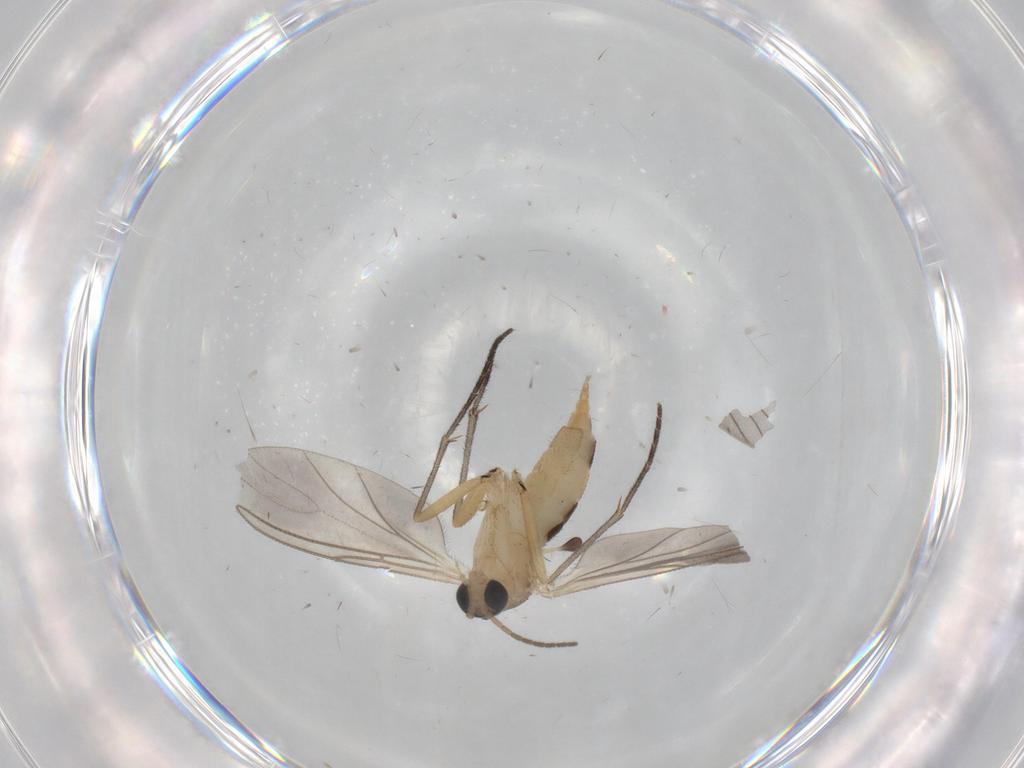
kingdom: Animalia
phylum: Arthropoda
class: Insecta
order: Diptera
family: Sciaridae
